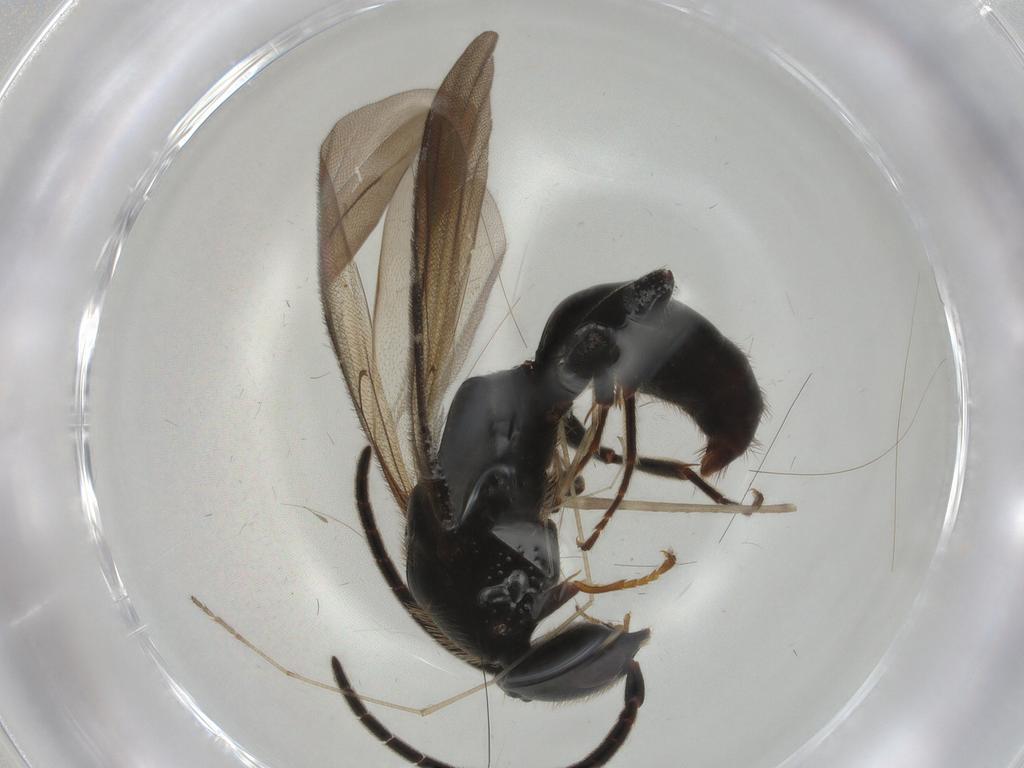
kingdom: Animalia
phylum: Arthropoda
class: Insecta
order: Hymenoptera
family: Bethylidae
